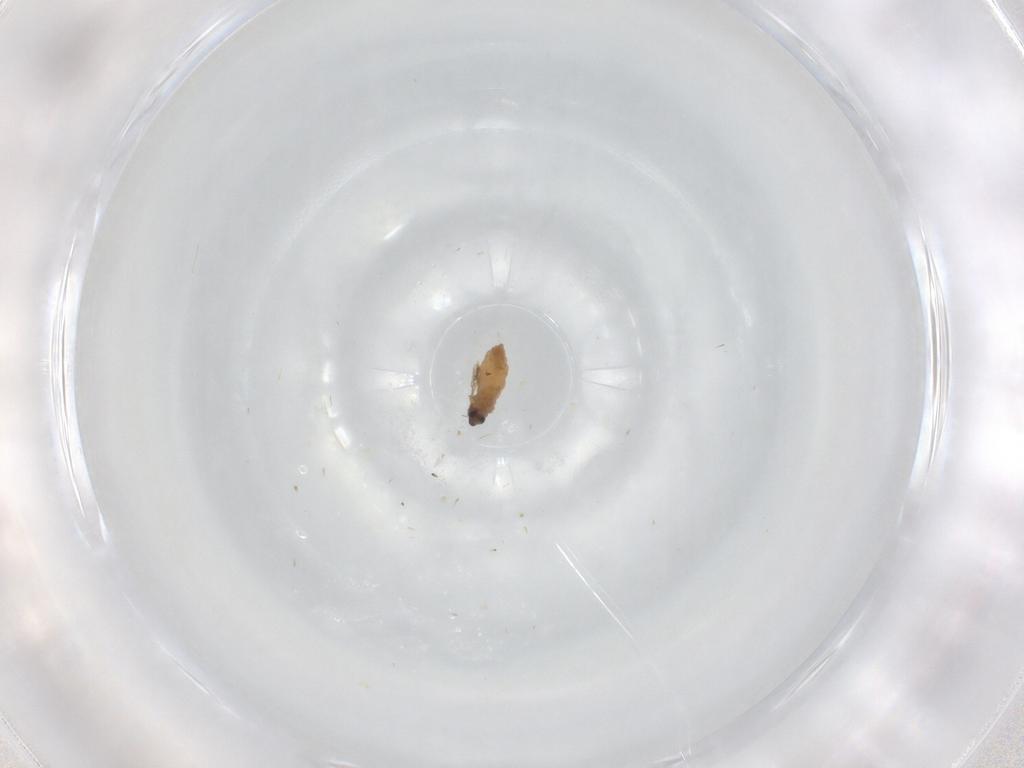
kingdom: Animalia
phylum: Arthropoda
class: Insecta
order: Diptera
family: Cecidomyiidae
